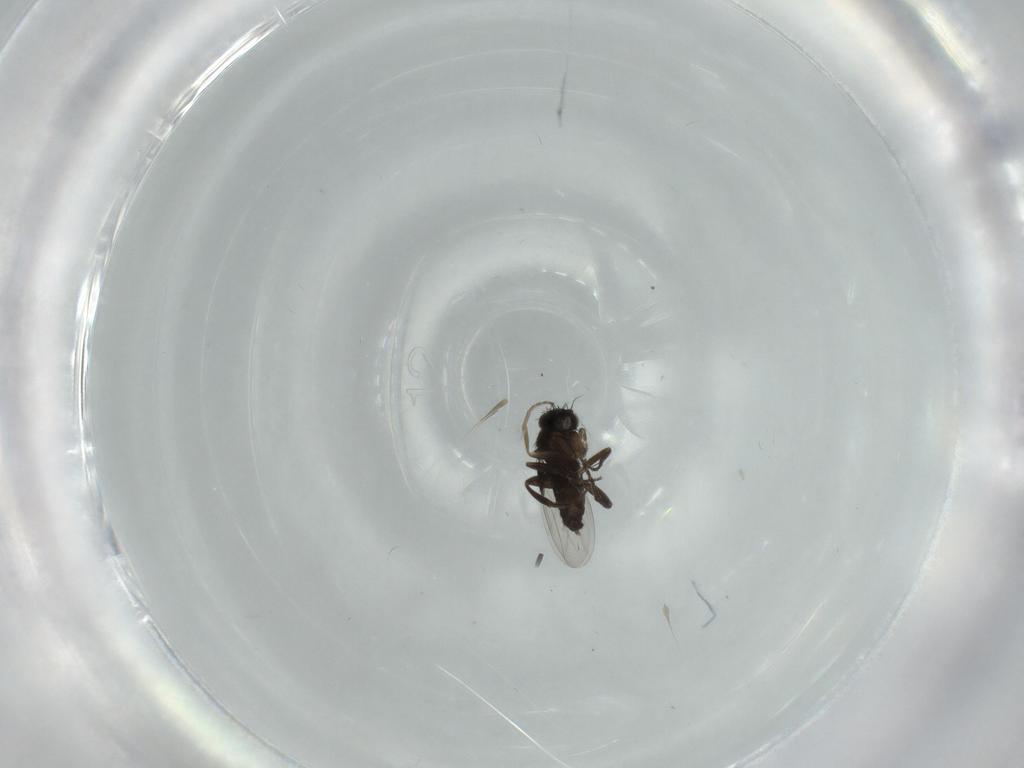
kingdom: Animalia
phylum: Arthropoda
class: Insecta
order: Diptera
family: Phoridae
